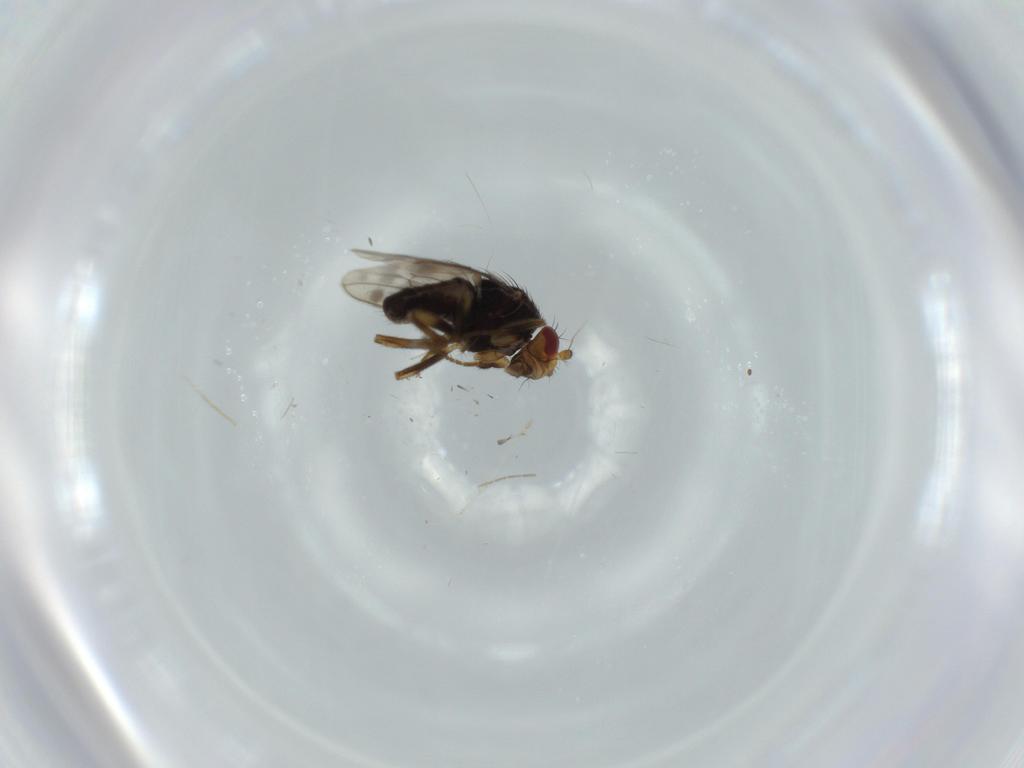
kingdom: Animalia
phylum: Arthropoda
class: Insecta
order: Diptera
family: Sphaeroceridae
